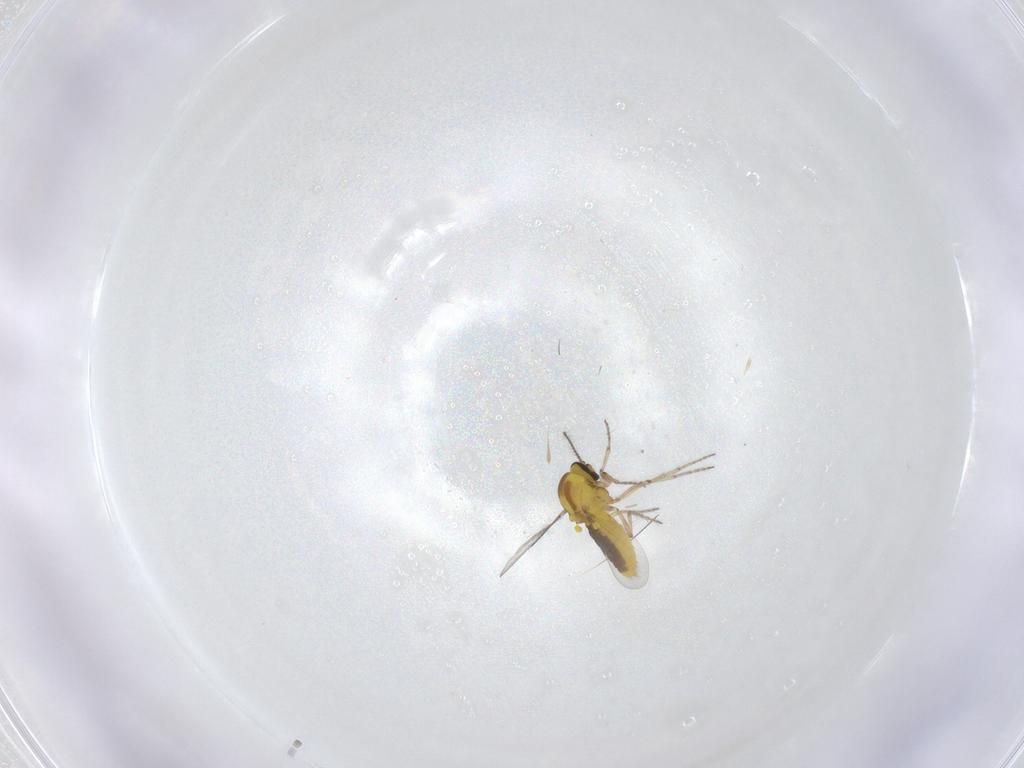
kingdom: Animalia
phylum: Arthropoda
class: Insecta
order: Diptera
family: Ceratopogonidae
